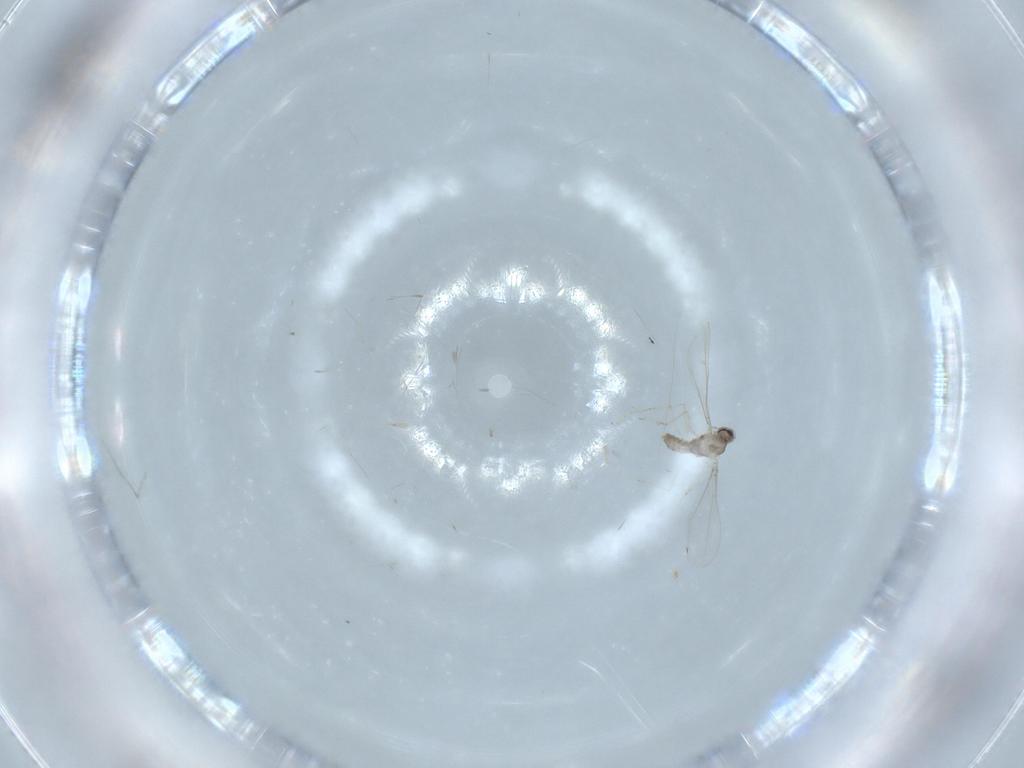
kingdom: Animalia
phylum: Arthropoda
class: Insecta
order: Diptera
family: Cecidomyiidae
